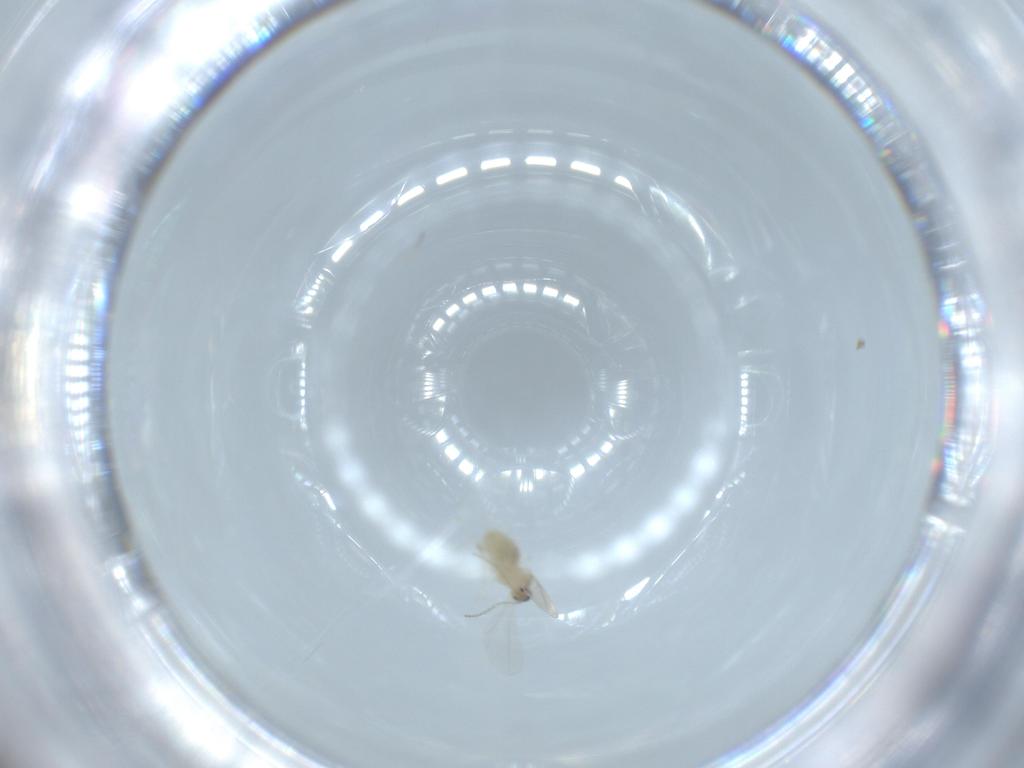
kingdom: Animalia
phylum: Arthropoda
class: Insecta
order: Diptera
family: Cecidomyiidae
